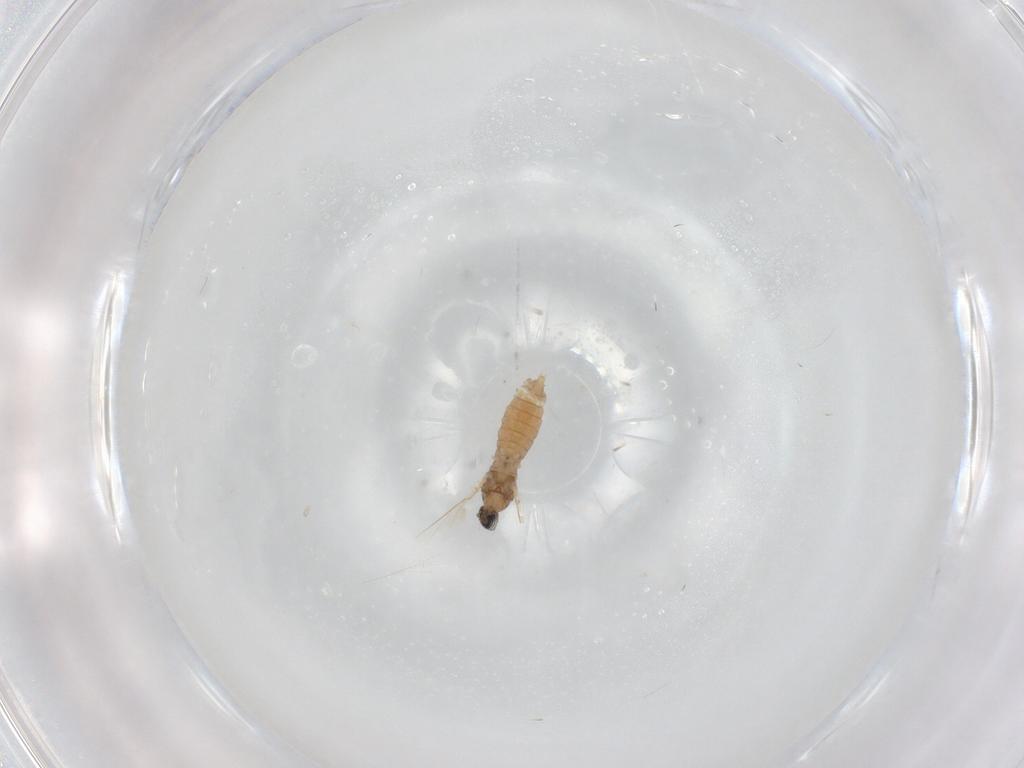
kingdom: Animalia
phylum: Arthropoda
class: Insecta
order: Diptera
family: Cecidomyiidae
